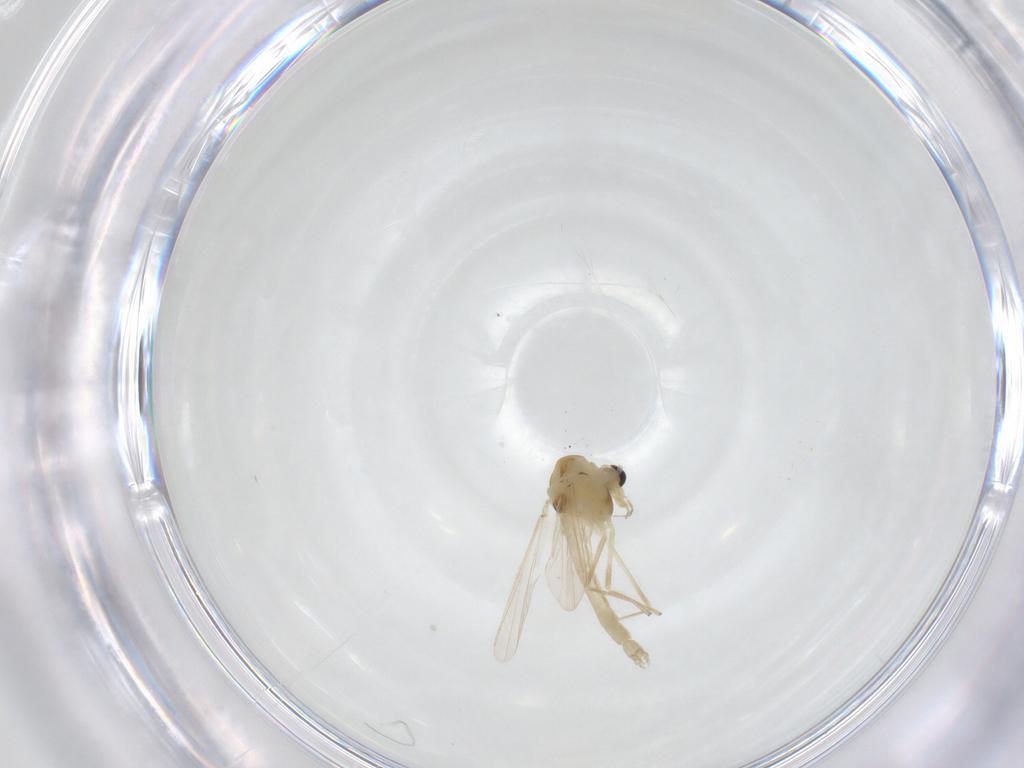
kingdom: Animalia
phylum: Arthropoda
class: Insecta
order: Diptera
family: Chironomidae
